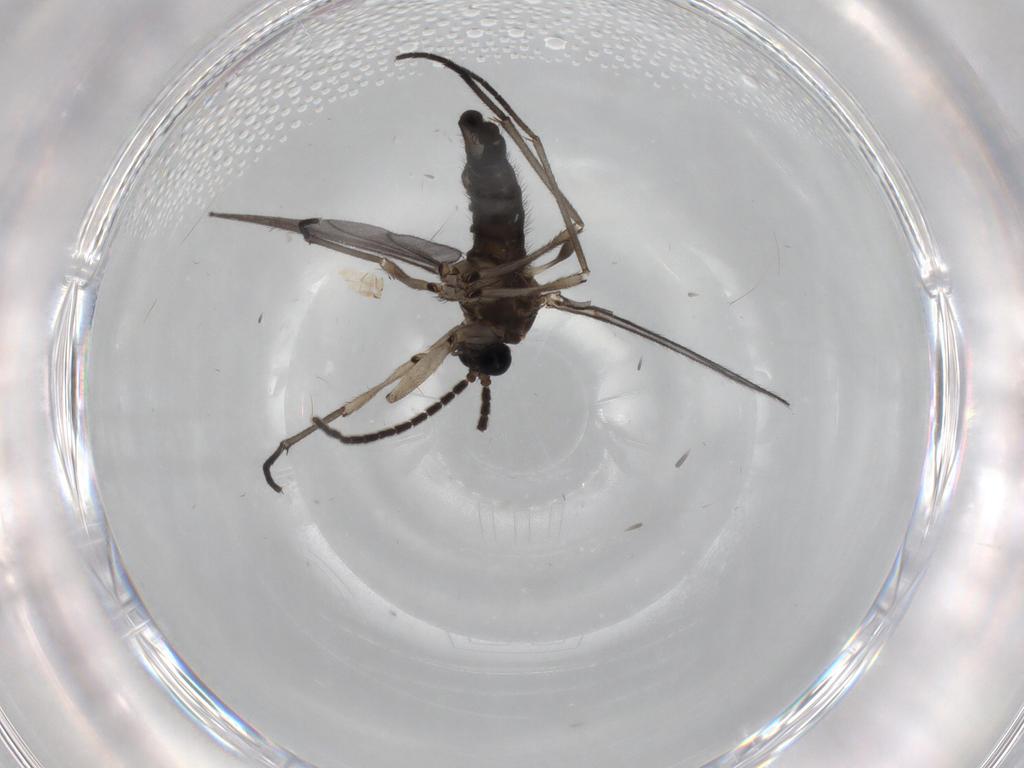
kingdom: Animalia
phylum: Arthropoda
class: Insecta
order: Diptera
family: Sciaridae
